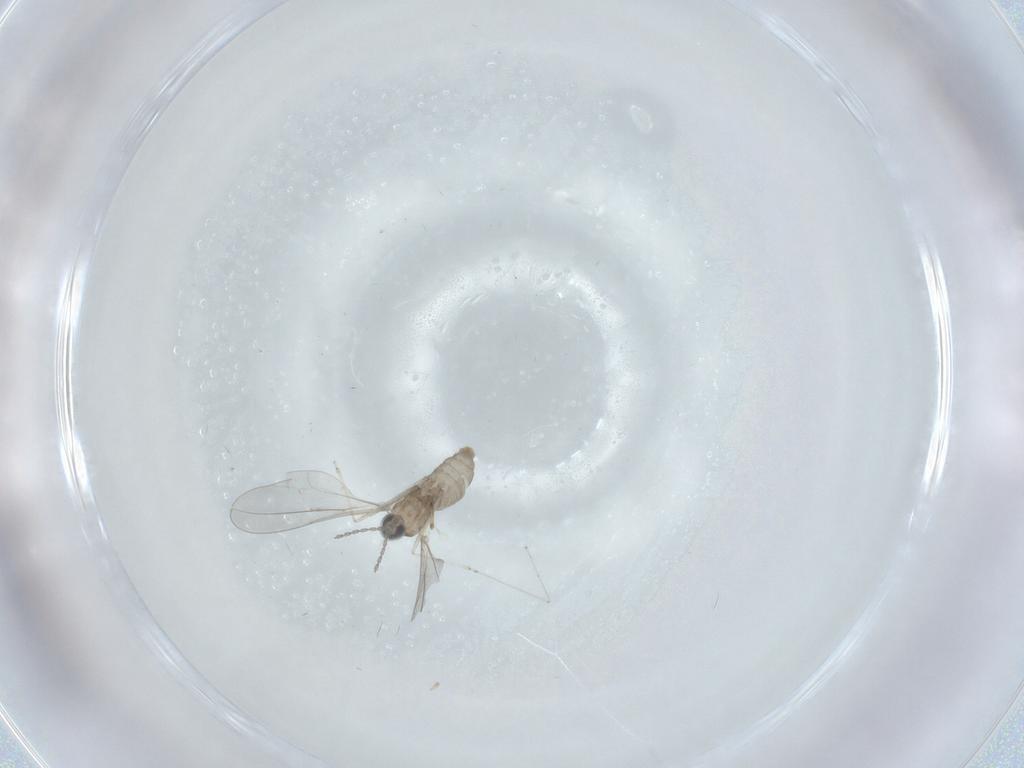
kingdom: Animalia
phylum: Arthropoda
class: Insecta
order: Diptera
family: Cecidomyiidae
